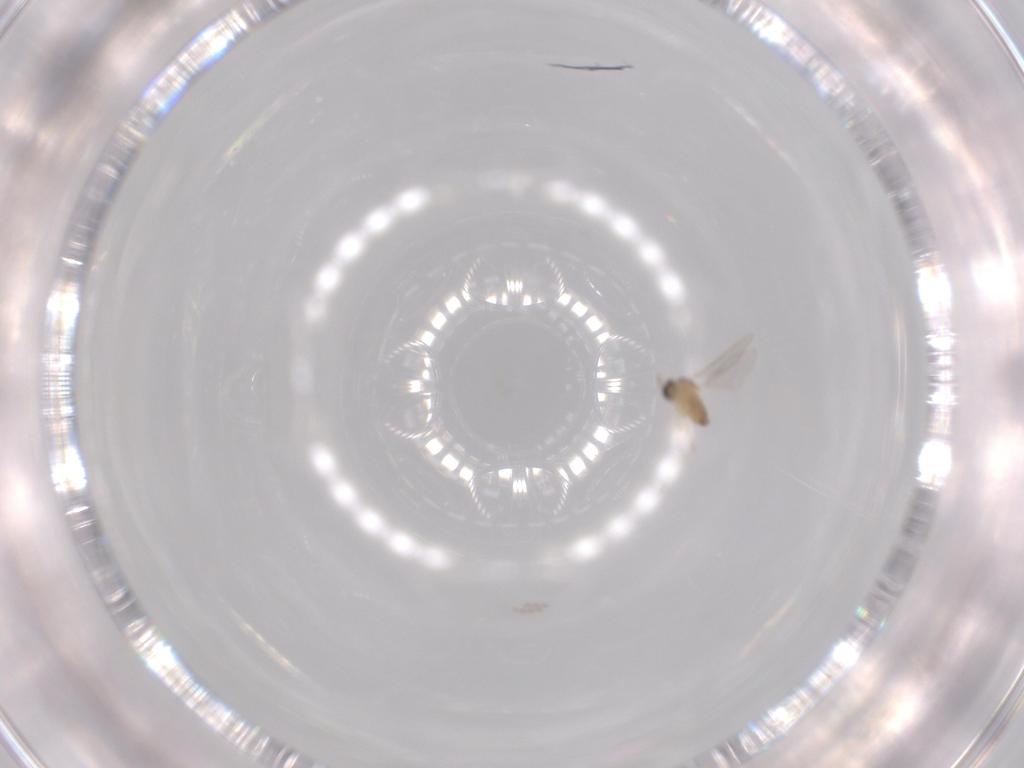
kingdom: Animalia
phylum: Arthropoda
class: Insecta
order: Diptera
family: Cecidomyiidae
